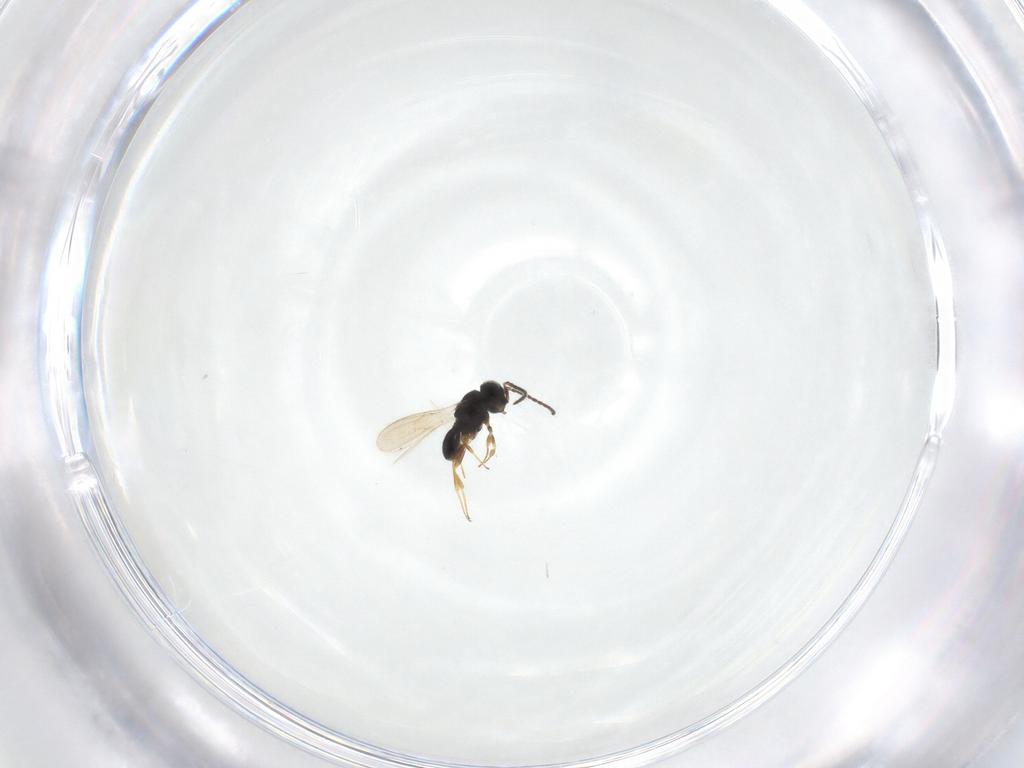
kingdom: Animalia
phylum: Arthropoda
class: Insecta
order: Hymenoptera
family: Scelionidae
